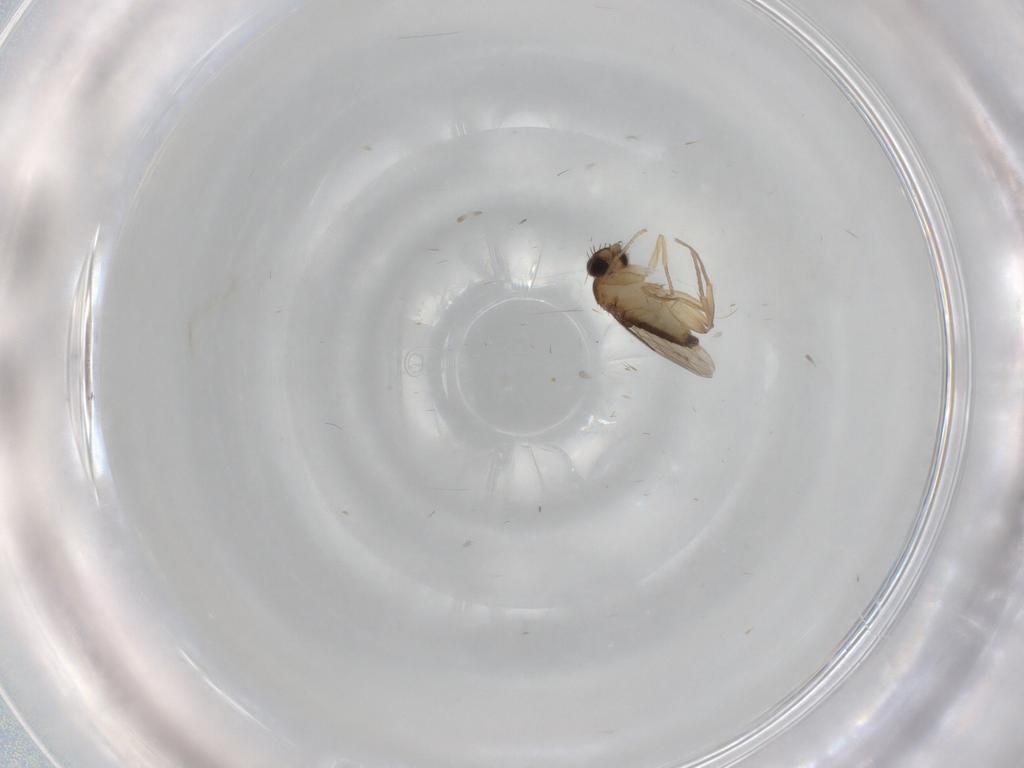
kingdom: Animalia
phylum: Arthropoda
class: Insecta
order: Diptera
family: Phoridae
